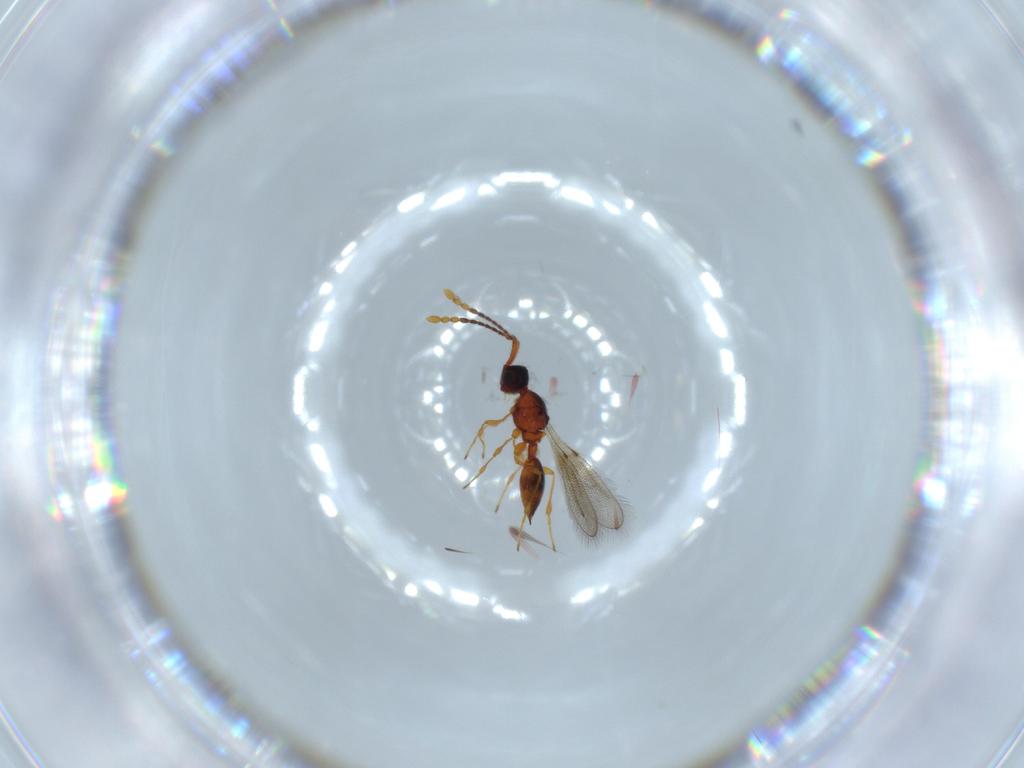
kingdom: Animalia
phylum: Arthropoda
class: Insecta
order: Hymenoptera
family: Diapriidae
